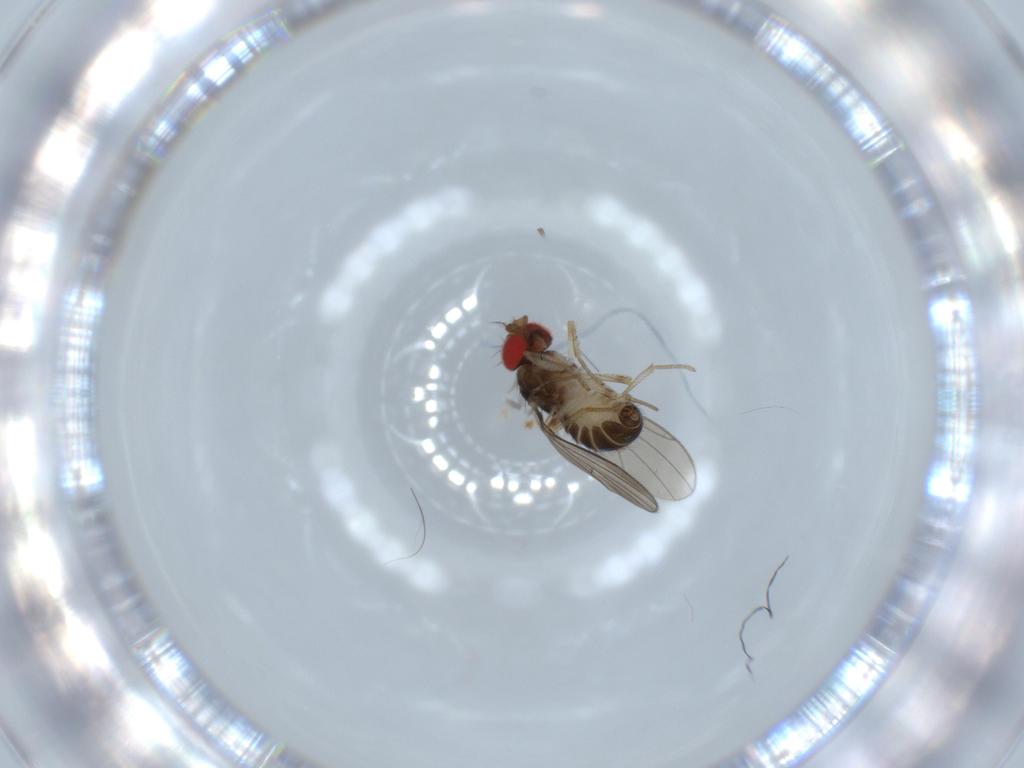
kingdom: Animalia
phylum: Arthropoda
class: Insecta
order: Diptera
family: Drosophilidae
